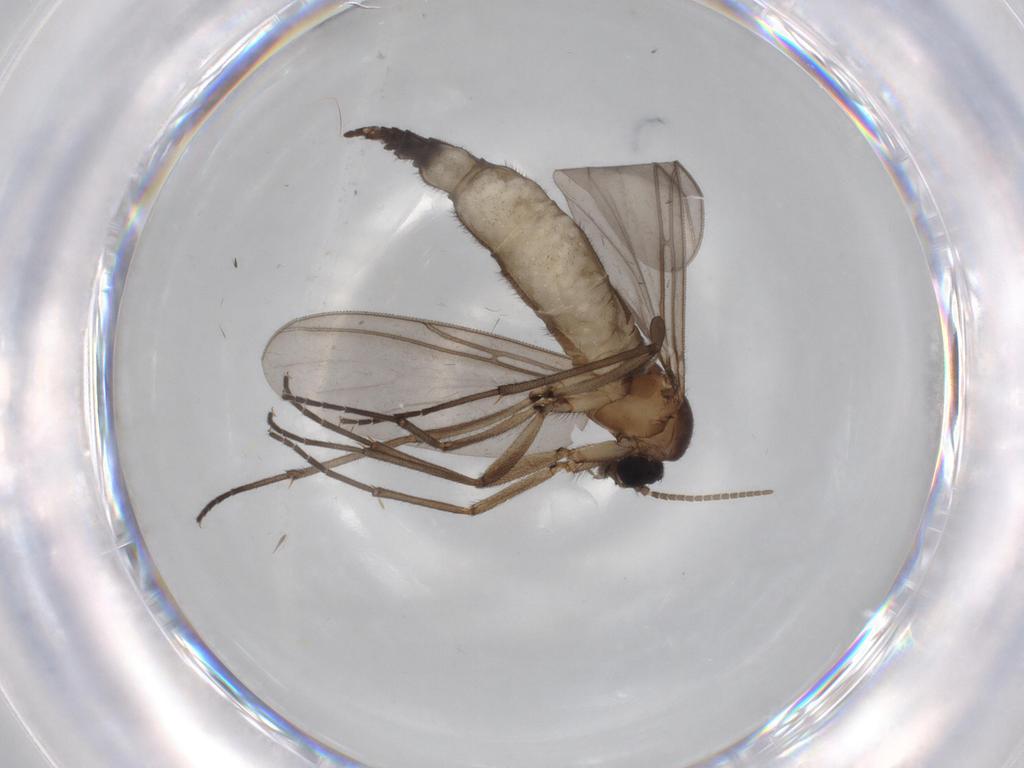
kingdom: Animalia
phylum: Arthropoda
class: Insecta
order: Diptera
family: Limoniidae
